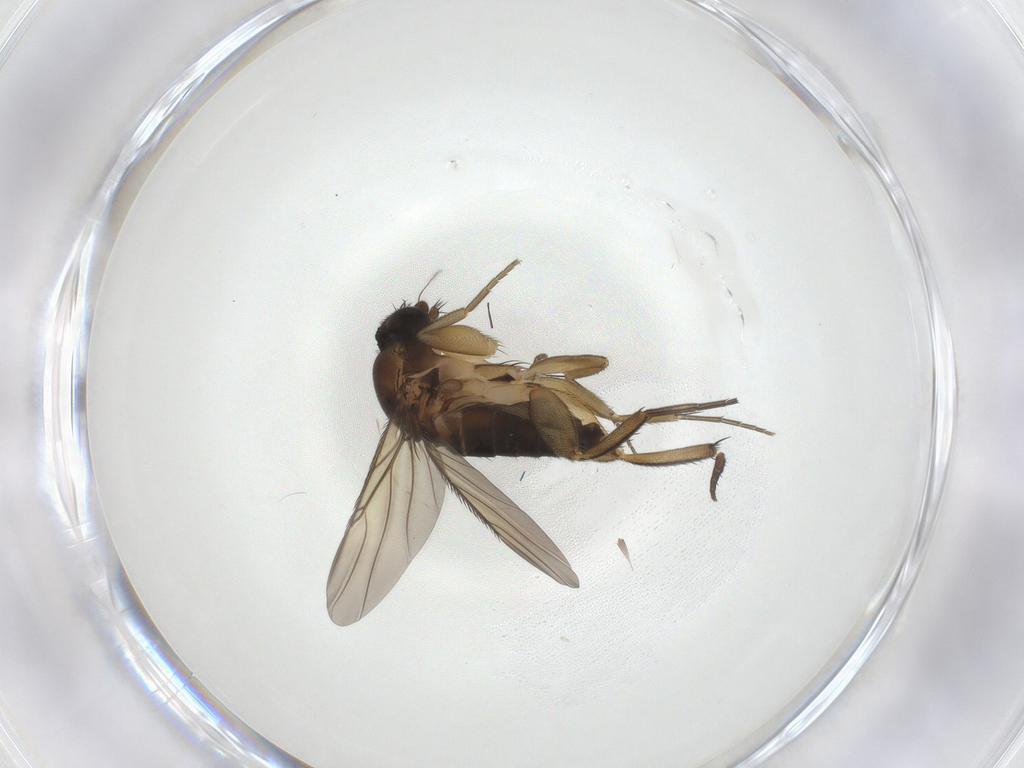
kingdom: Animalia
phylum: Arthropoda
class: Insecta
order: Diptera
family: Phoridae
